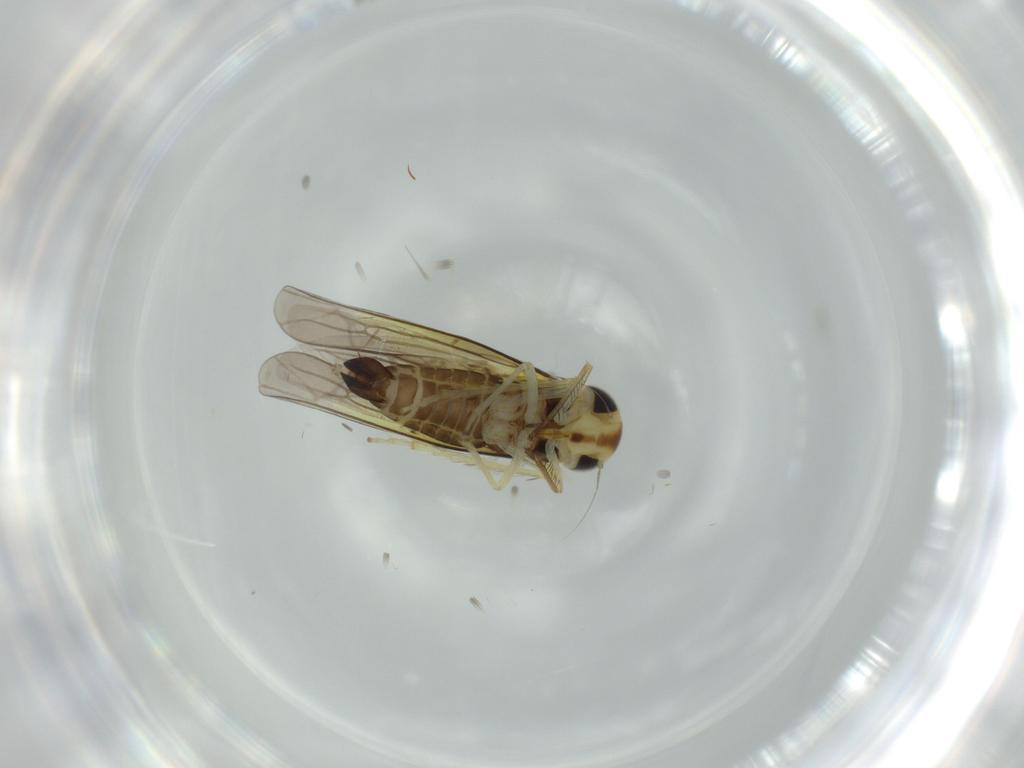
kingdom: Animalia
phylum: Arthropoda
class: Insecta
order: Hemiptera
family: Cicadellidae
